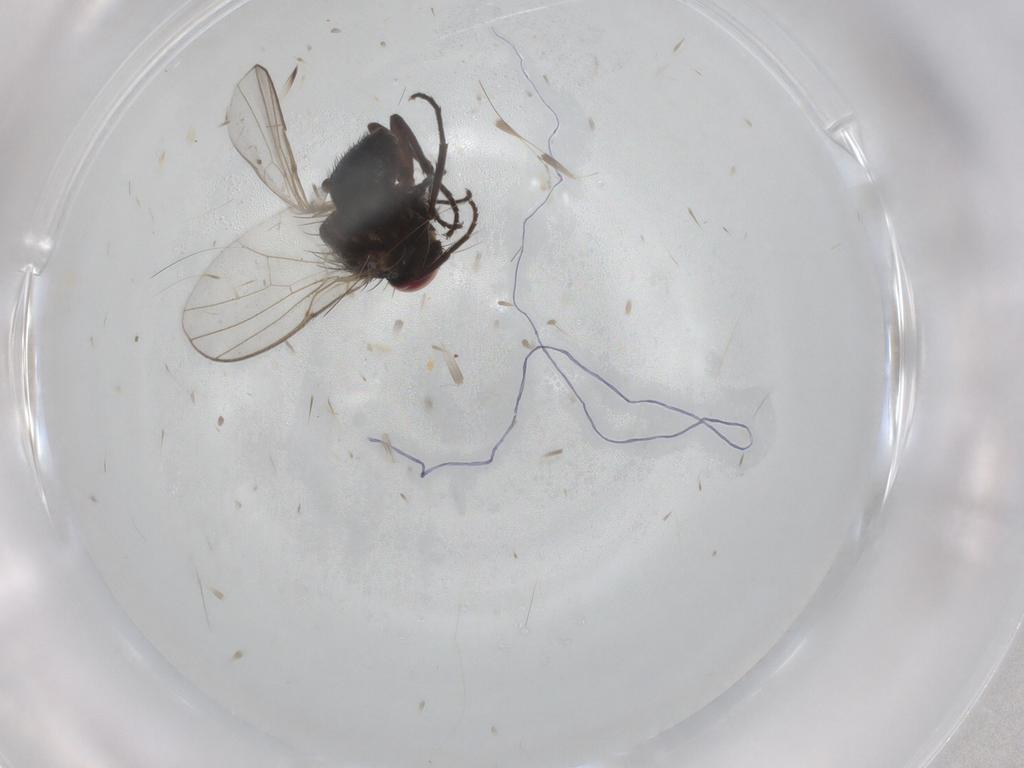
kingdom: Animalia
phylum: Arthropoda
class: Insecta
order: Diptera
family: Agromyzidae
